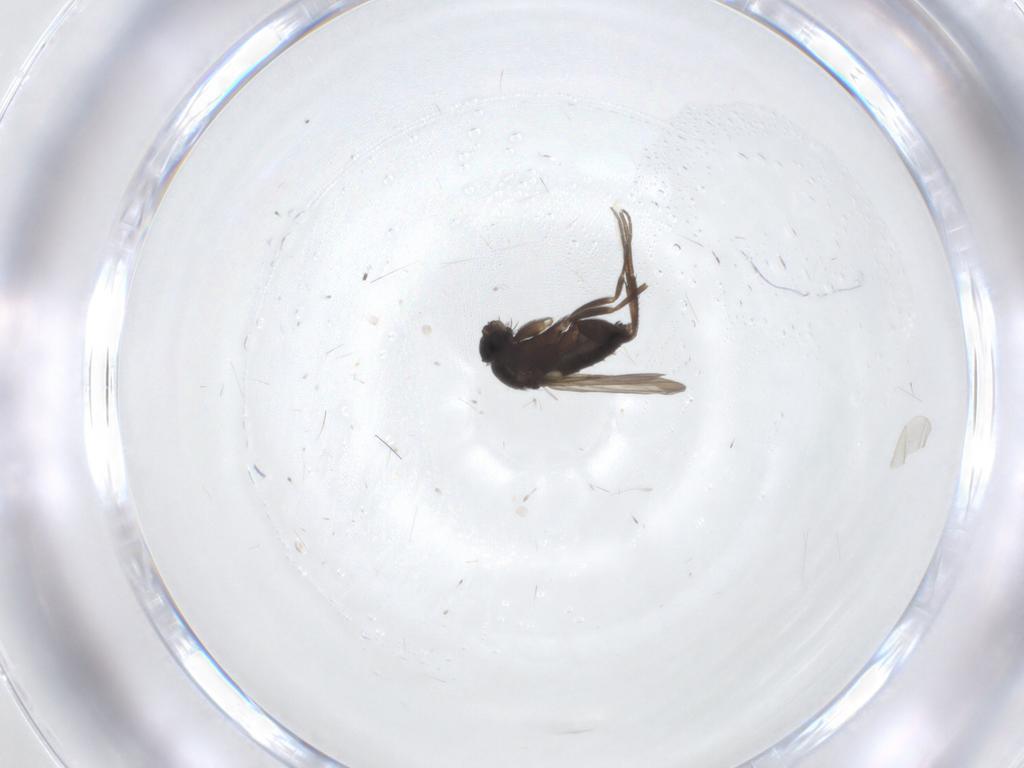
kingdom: Animalia
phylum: Arthropoda
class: Insecta
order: Diptera
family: Phoridae
